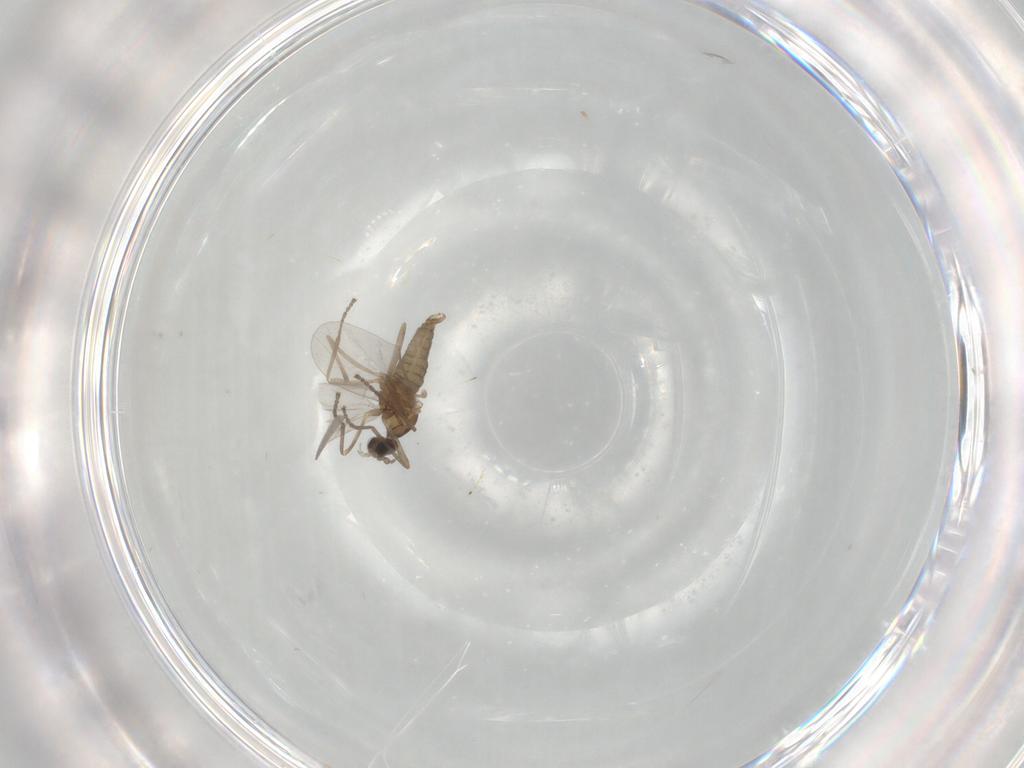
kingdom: Animalia
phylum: Arthropoda
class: Insecta
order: Diptera
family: Cecidomyiidae
